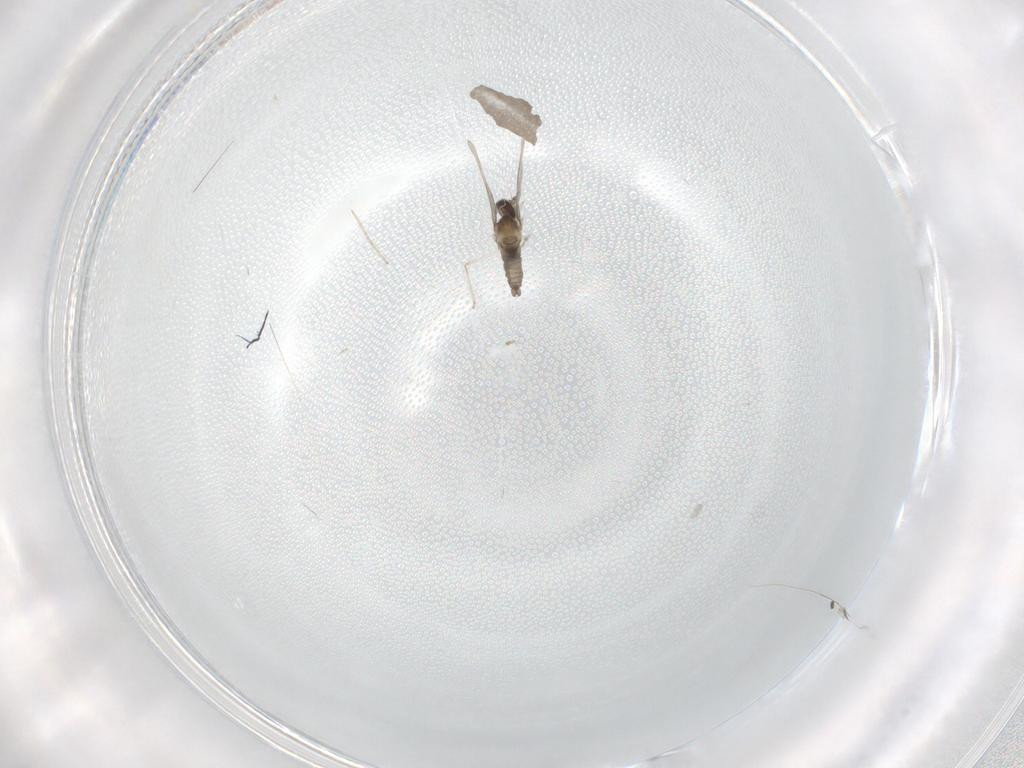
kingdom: Animalia
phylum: Arthropoda
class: Insecta
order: Diptera
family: Cecidomyiidae
